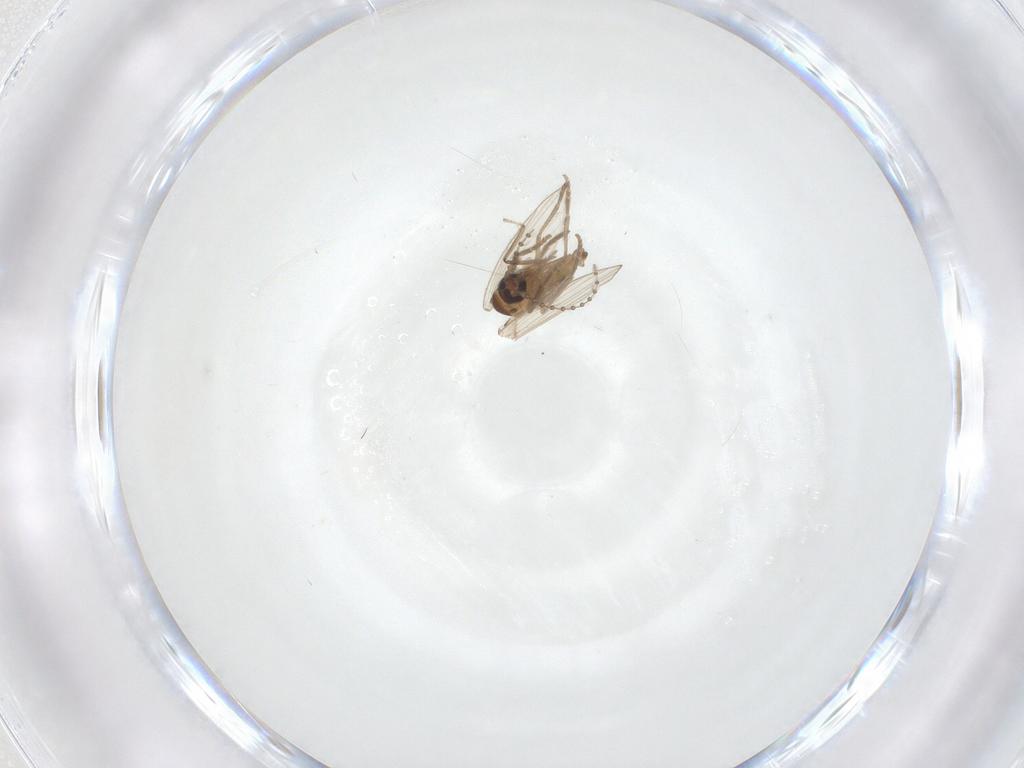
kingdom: Animalia
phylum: Arthropoda
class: Insecta
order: Diptera
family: Psychodidae
